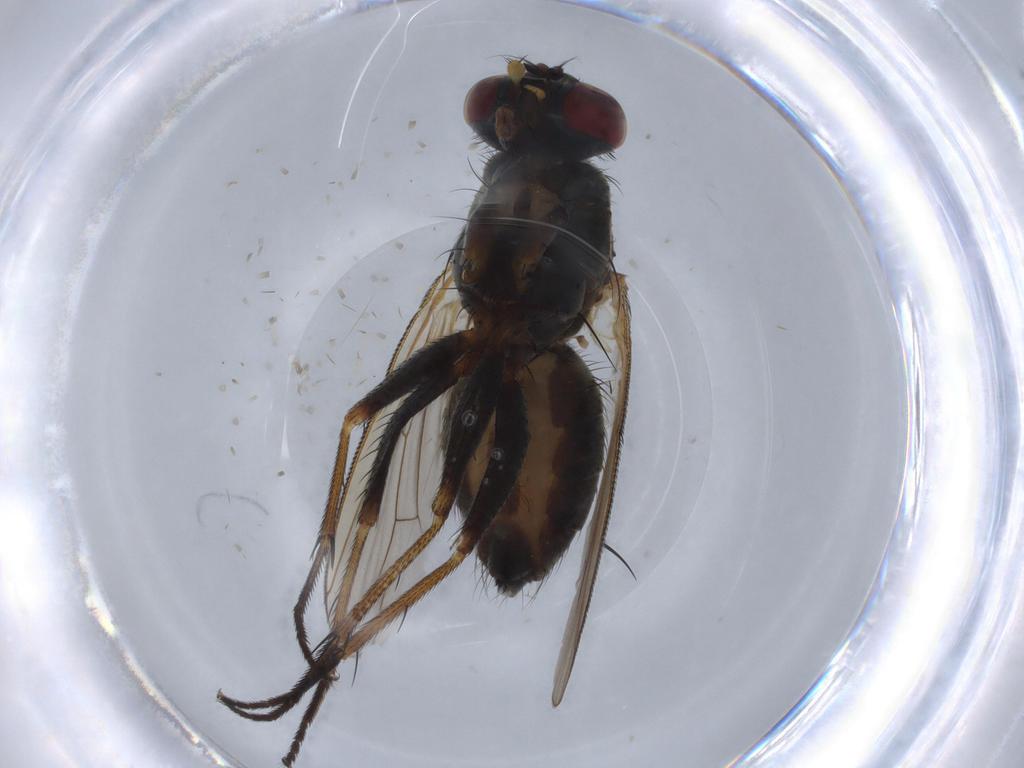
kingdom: Animalia
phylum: Arthropoda
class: Insecta
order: Diptera
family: Muscidae
